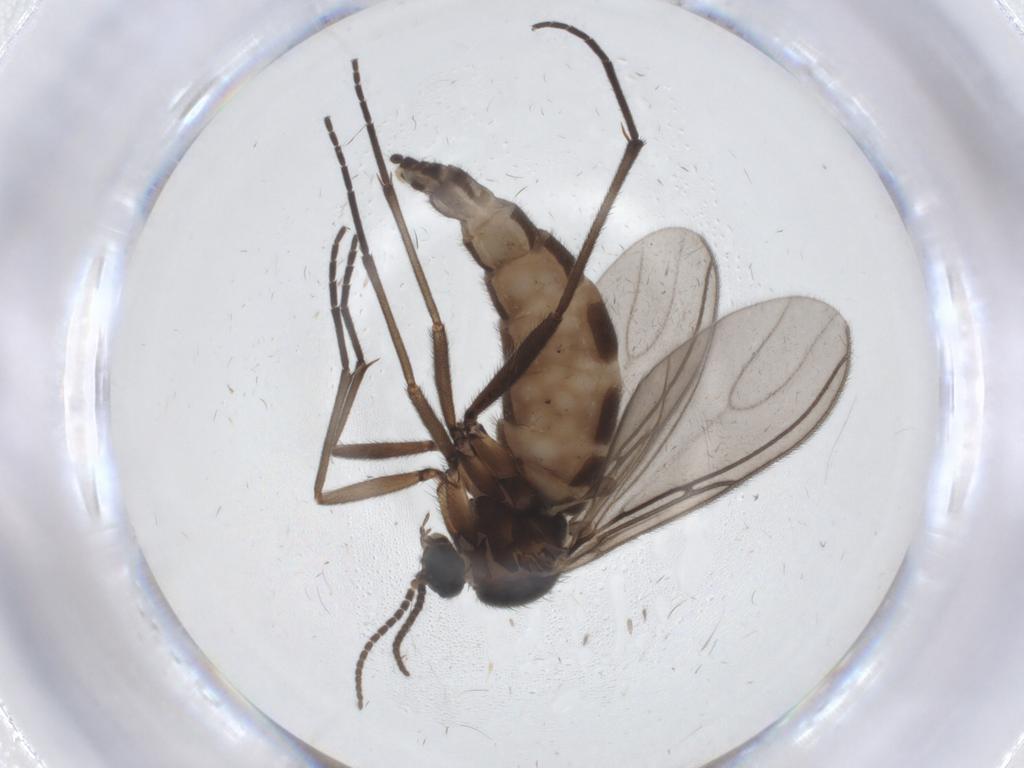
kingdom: Animalia
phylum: Arthropoda
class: Insecta
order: Diptera
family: Sciaridae
